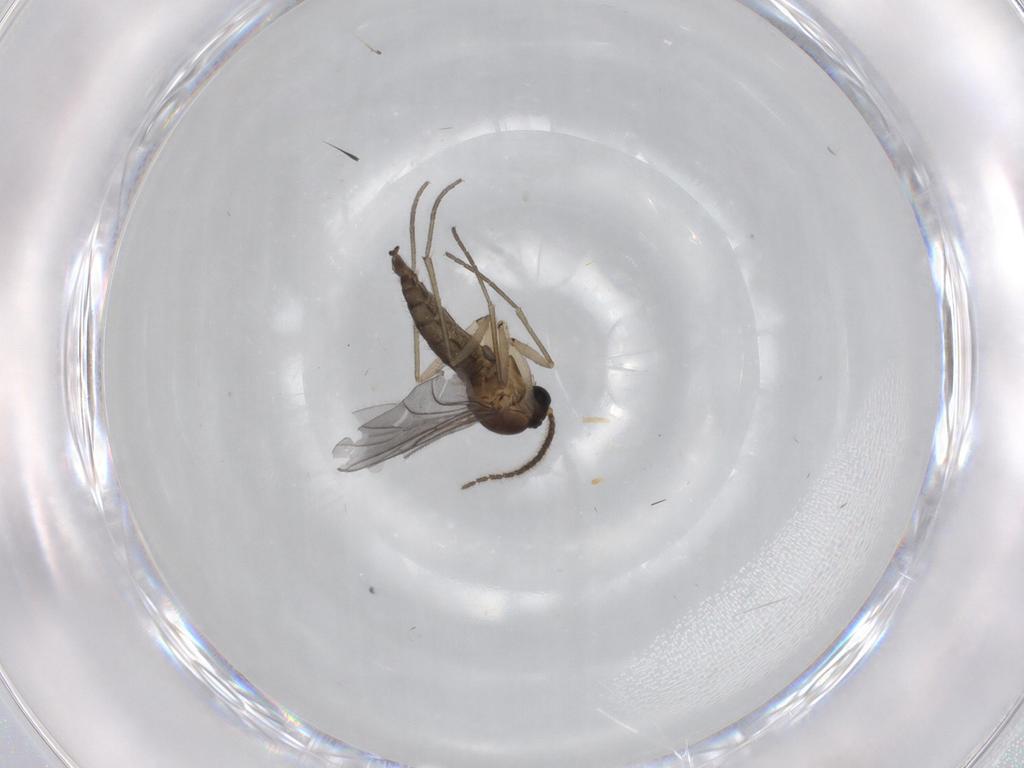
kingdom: Animalia
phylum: Arthropoda
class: Insecta
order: Diptera
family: Sciaridae
